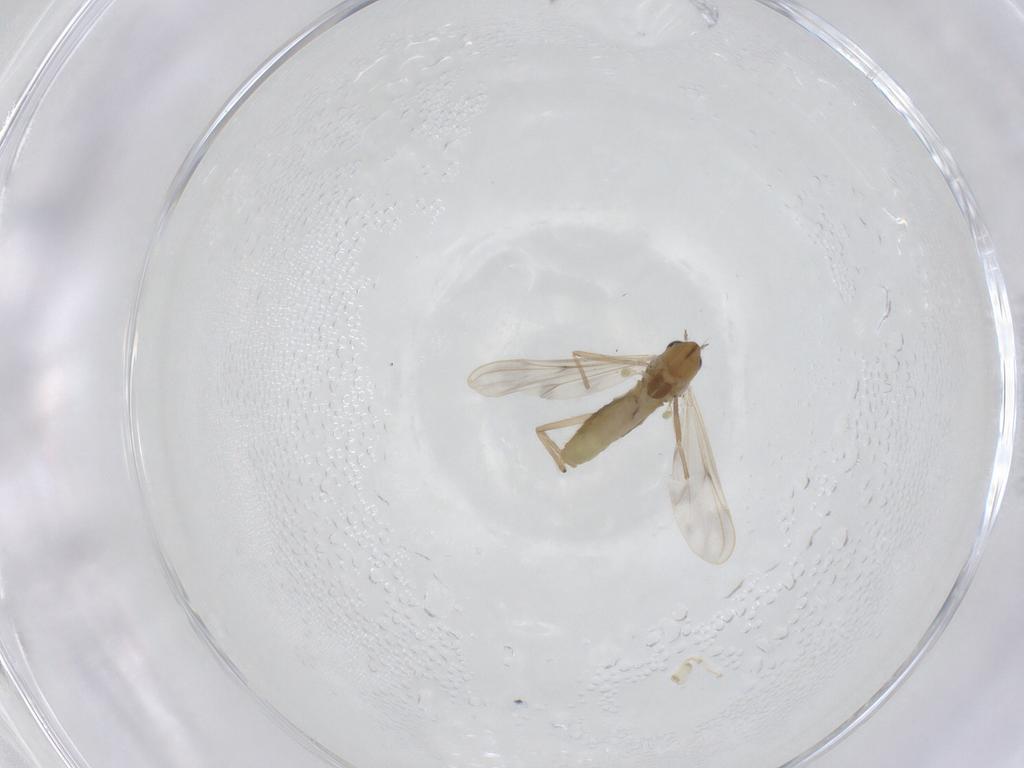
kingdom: Animalia
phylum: Arthropoda
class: Insecta
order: Diptera
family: Chironomidae
